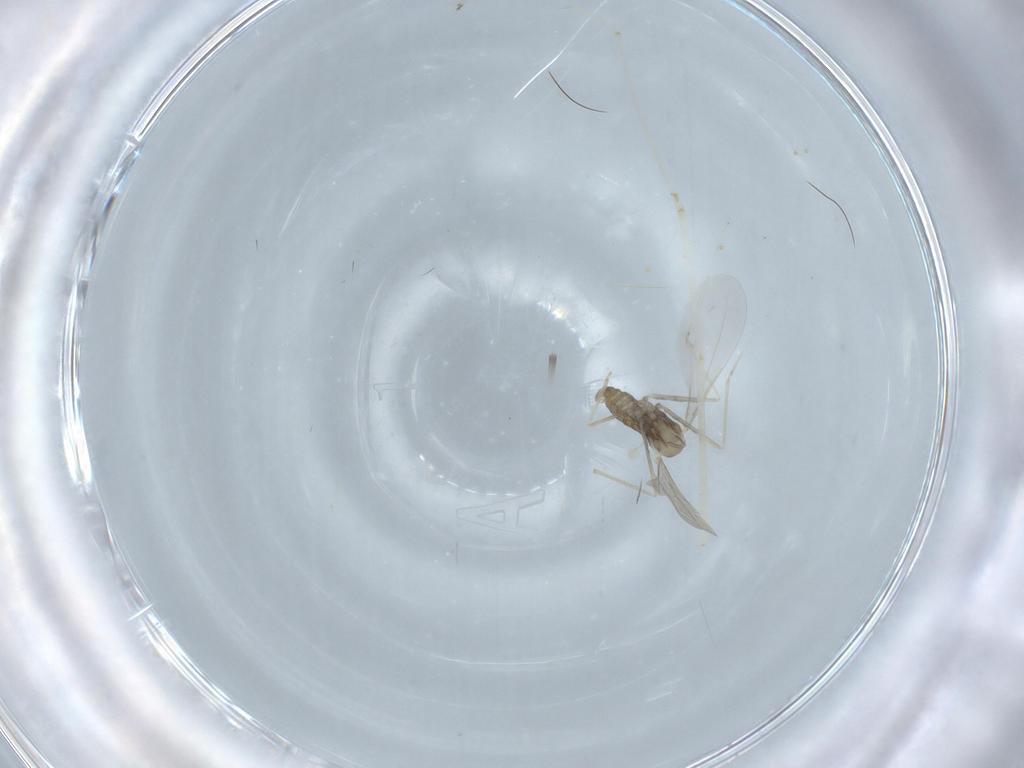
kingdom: Animalia
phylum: Arthropoda
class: Insecta
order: Diptera
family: Cecidomyiidae
